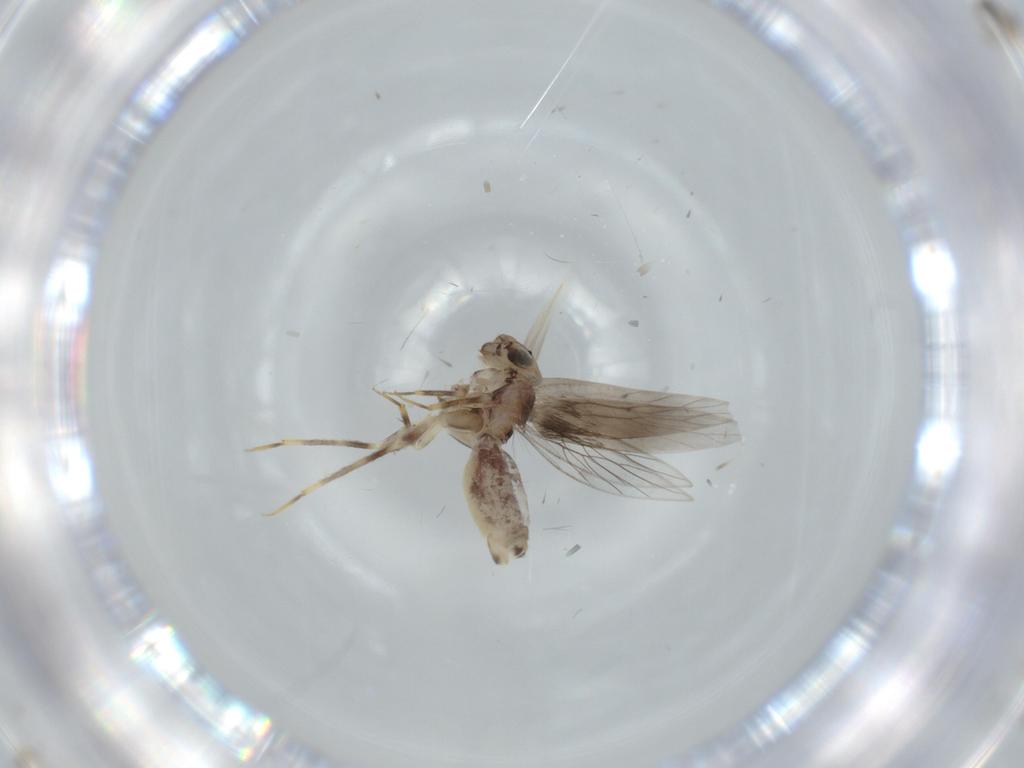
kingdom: Animalia
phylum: Arthropoda
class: Insecta
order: Psocodea
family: Lepidopsocidae
